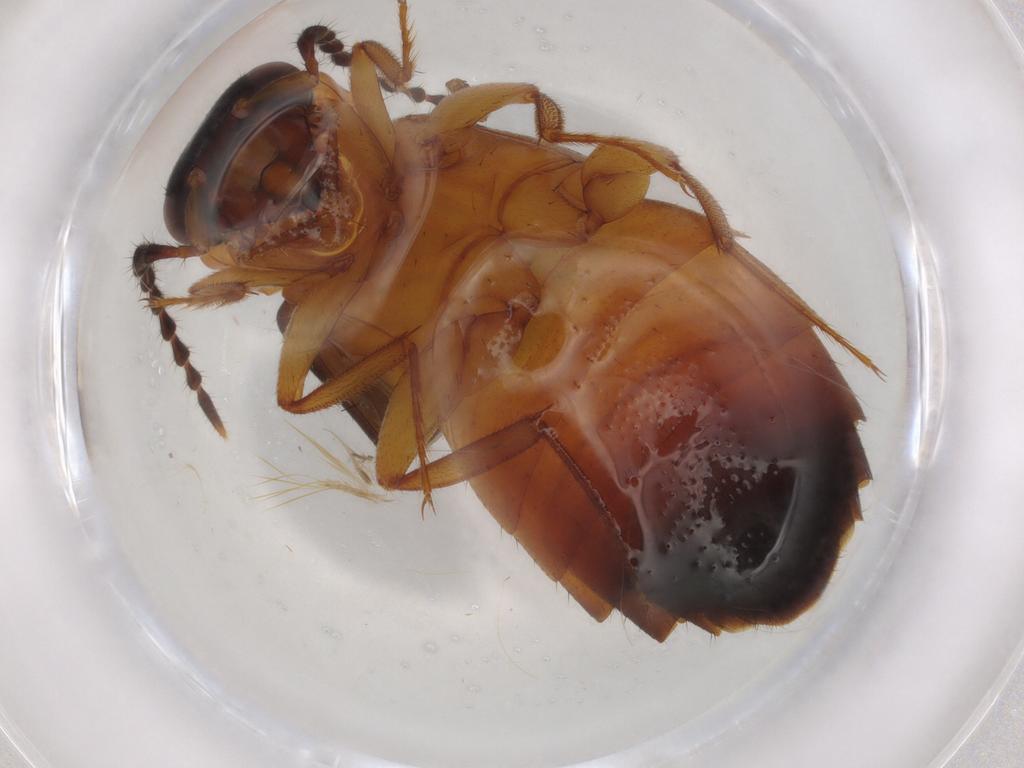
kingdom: Animalia
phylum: Arthropoda
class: Insecta
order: Coleoptera
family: Staphylinidae
